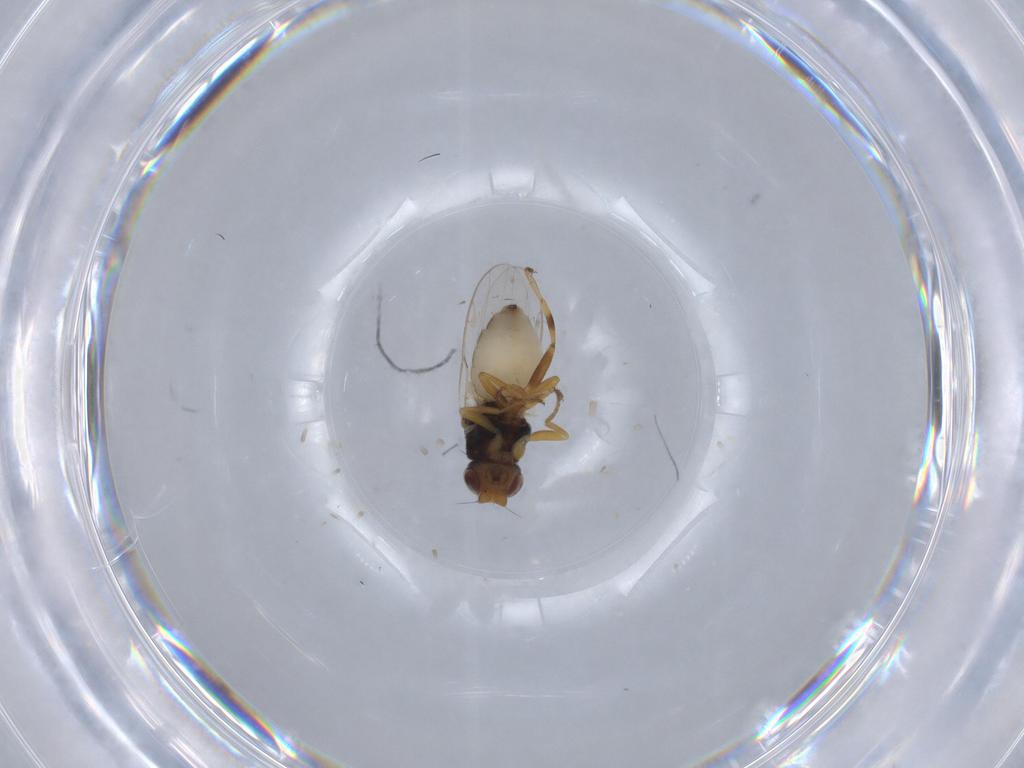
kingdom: Animalia
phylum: Arthropoda
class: Insecta
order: Diptera
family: Chloropidae
